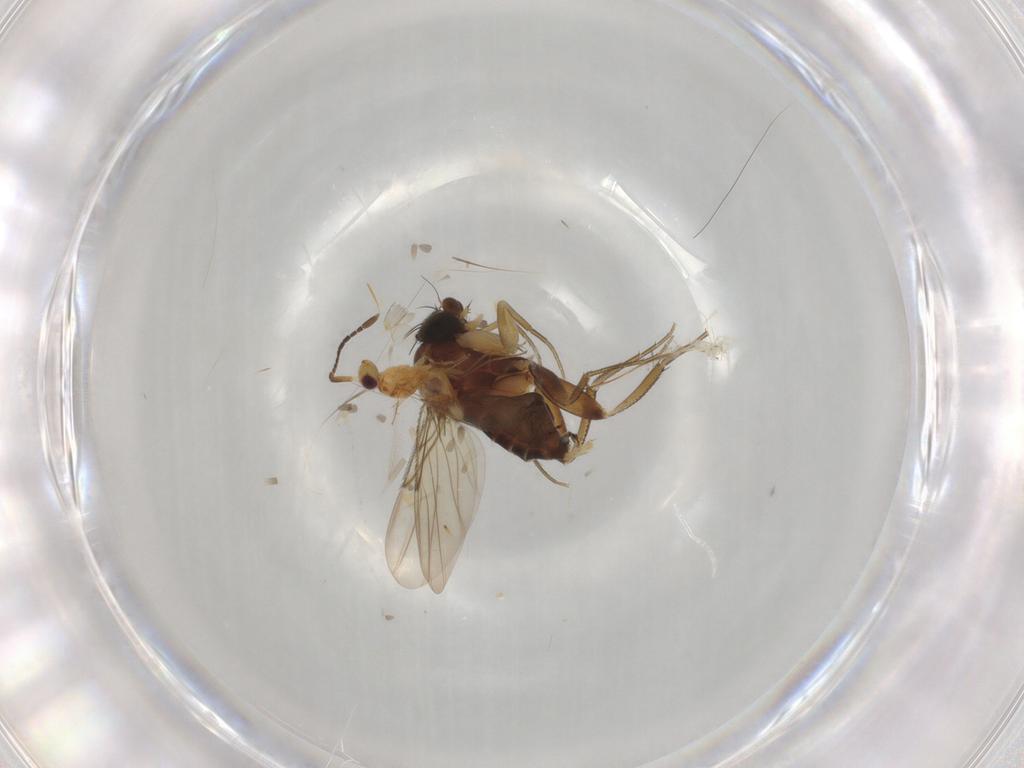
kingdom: Animalia
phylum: Arthropoda
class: Insecta
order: Diptera
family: Phoridae
